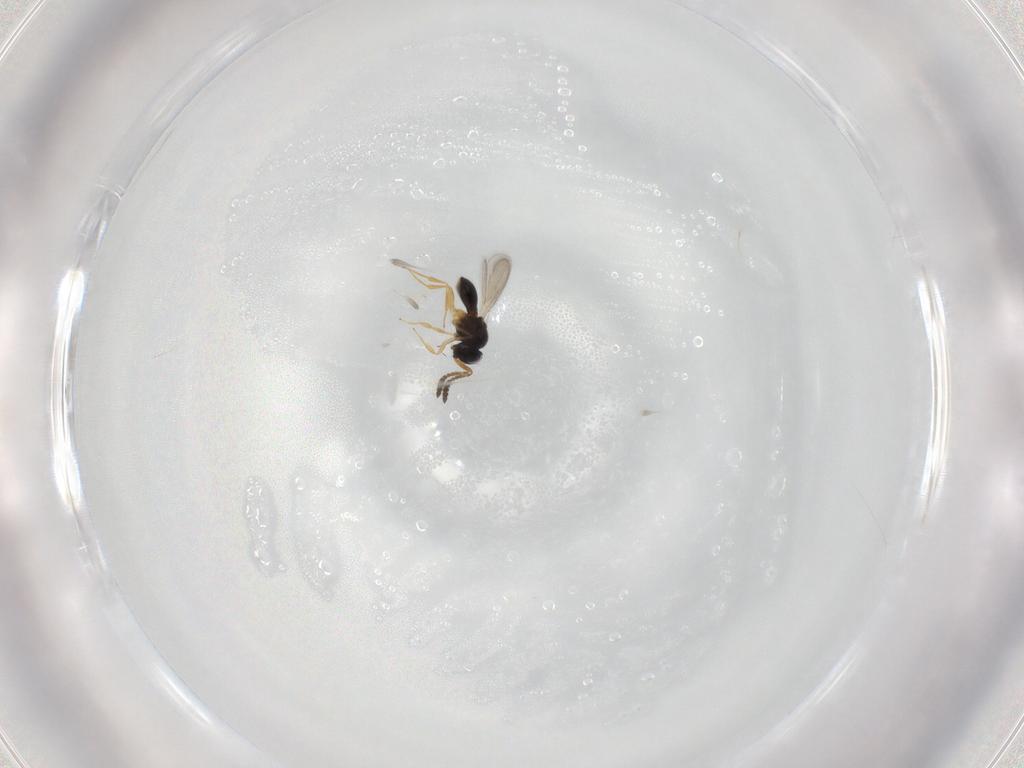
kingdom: Animalia
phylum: Arthropoda
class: Insecta
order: Hymenoptera
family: Scelionidae
